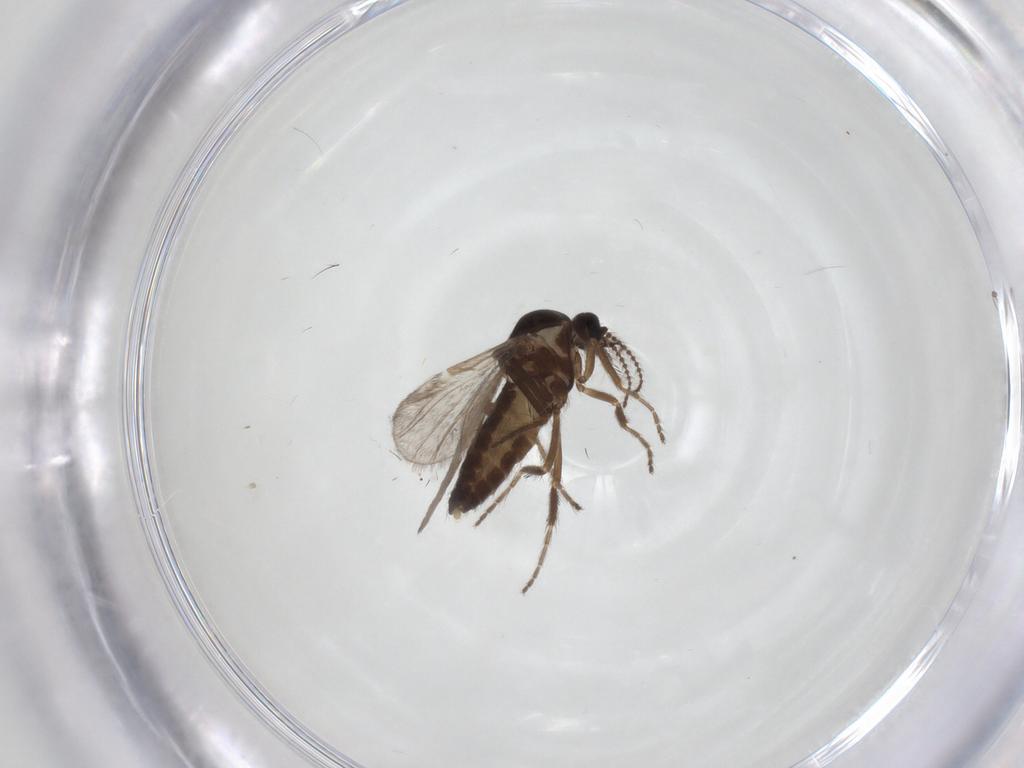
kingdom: Animalia
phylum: Arthropoda
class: Insecta
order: Diptera
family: Ceratopogonidae
